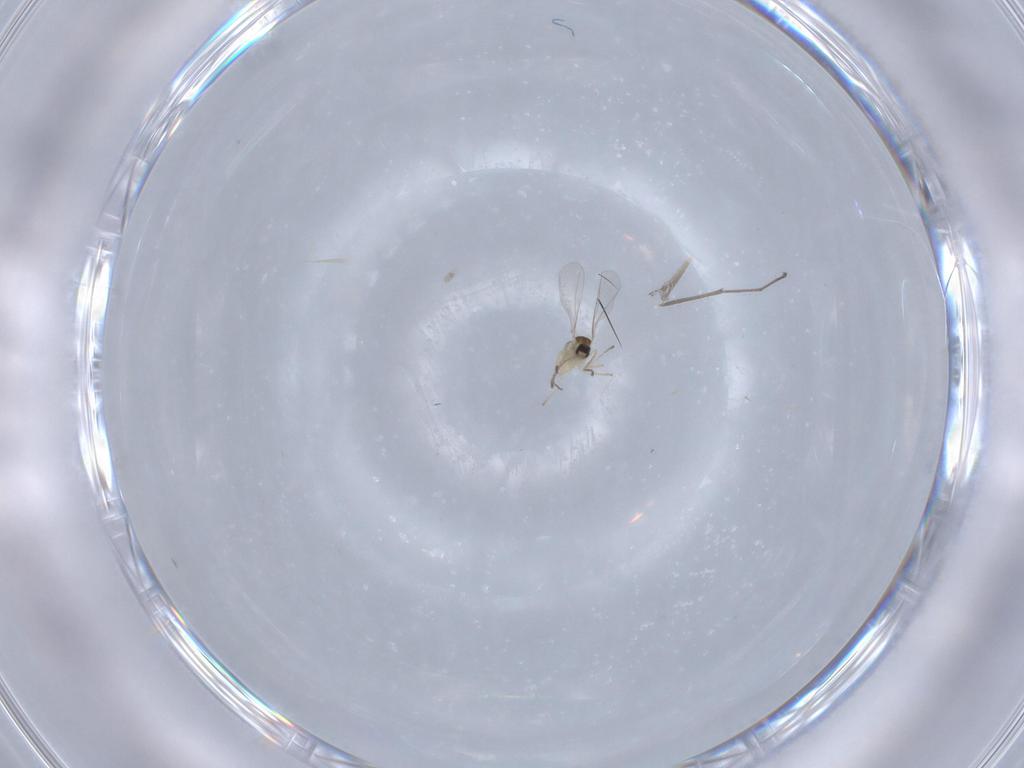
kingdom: Animalia
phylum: Arthropoda
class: Insecta
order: Diptera
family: Chironomidae
